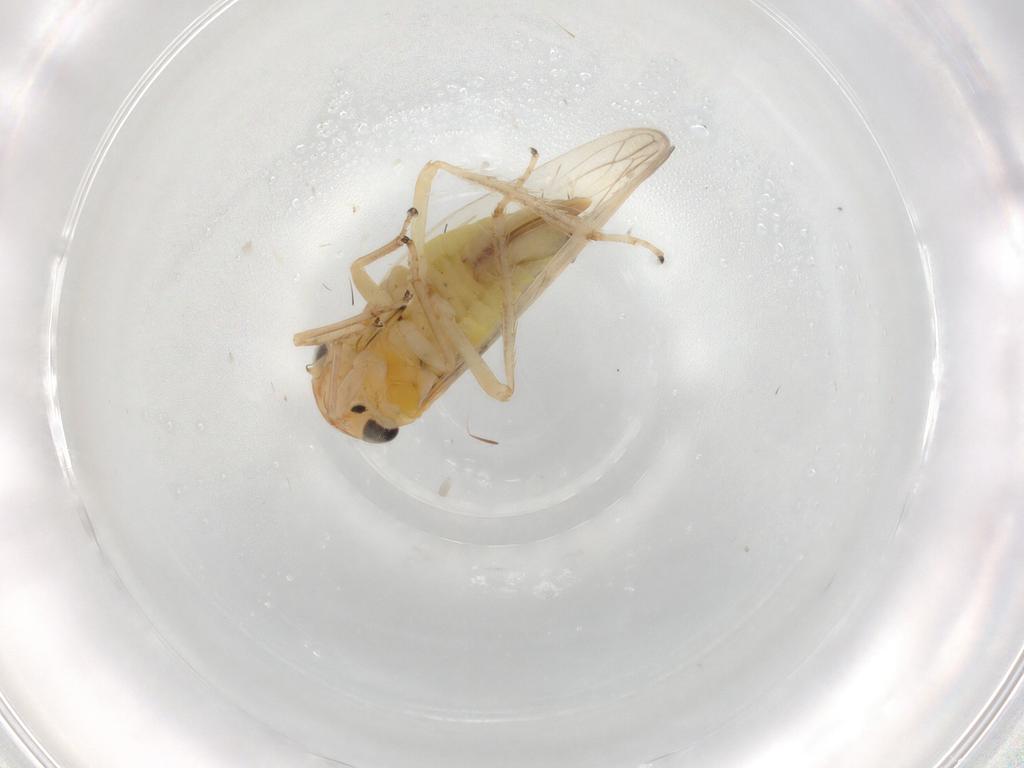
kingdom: Animalia
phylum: Arthropoda
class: Insecta
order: Hemiptera
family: Cicadellidae
